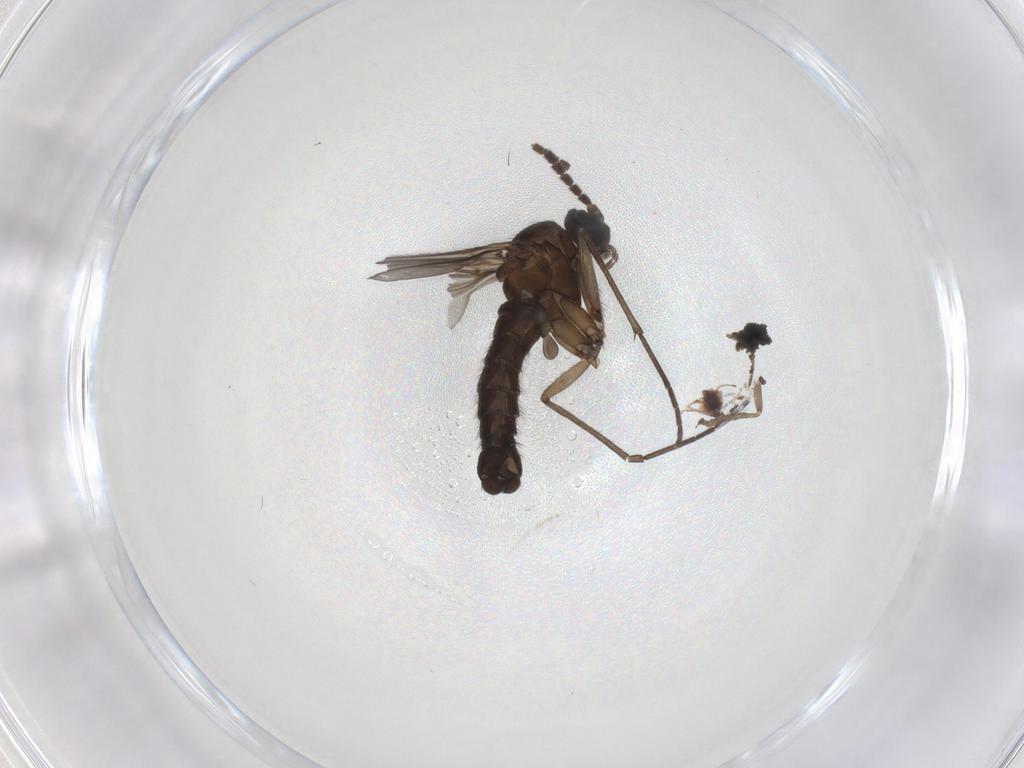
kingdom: Animalia
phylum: Arthropoda
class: Insecta
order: Diptera
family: Sciaridae
